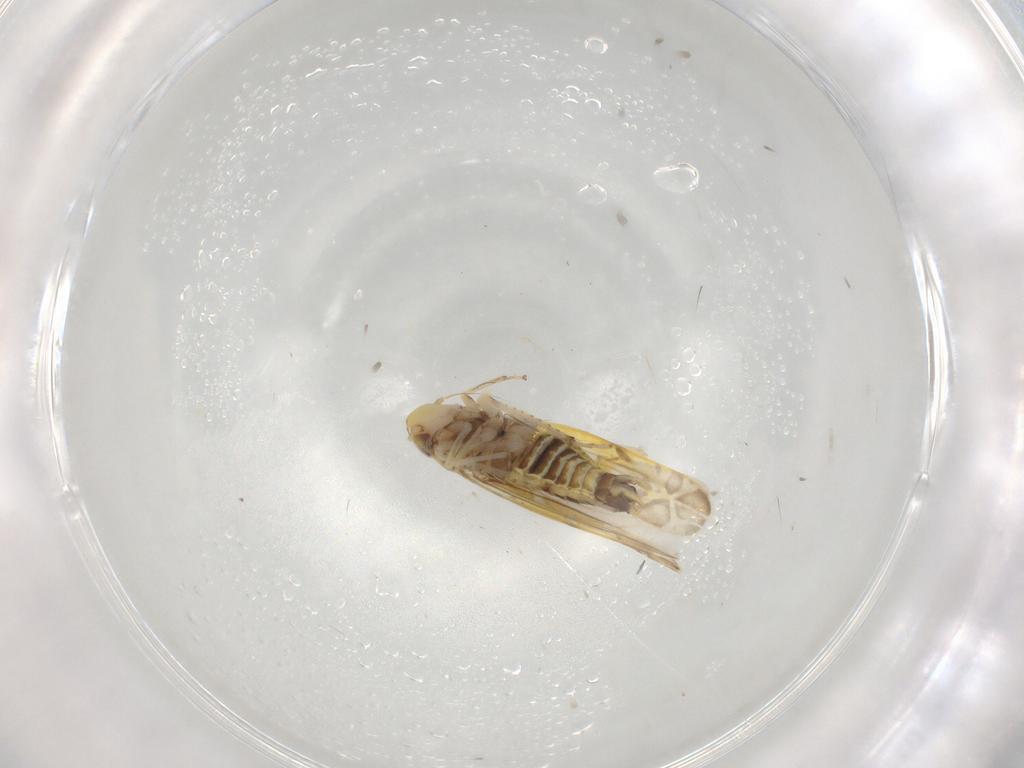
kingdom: Animalia
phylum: Arthropoda
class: Insecta
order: Hemiptera
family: Cicadellidae
